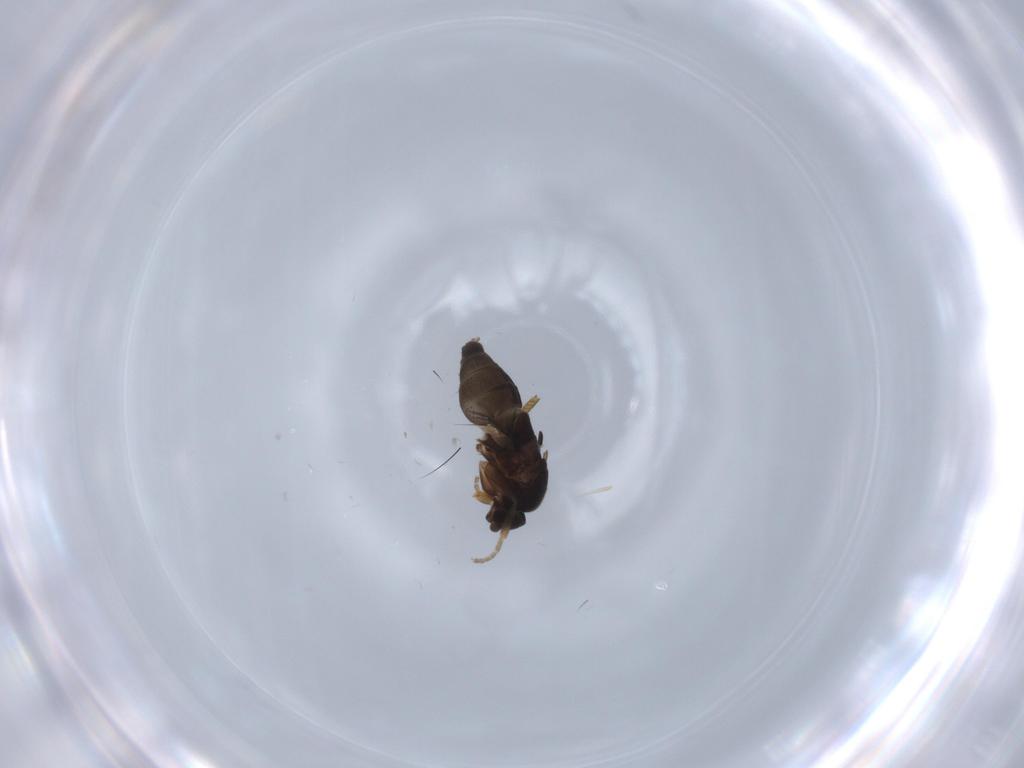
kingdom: Animalia
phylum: Arthropoda
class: Insecta
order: Diptera
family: Phoridae
